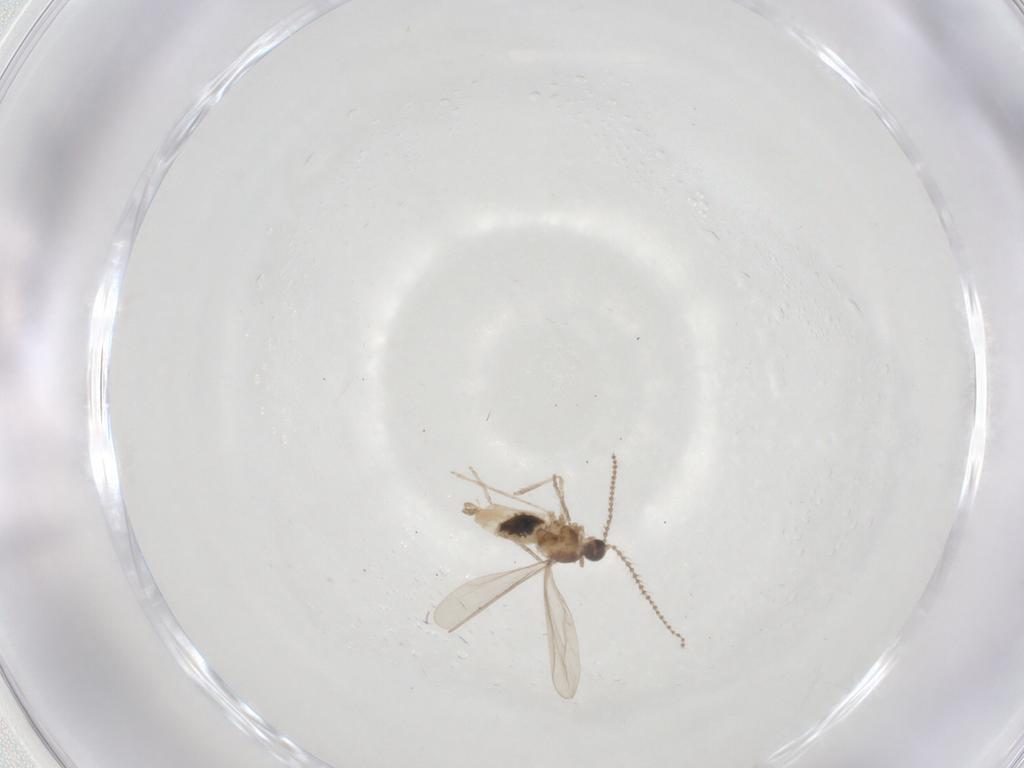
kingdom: Animalia
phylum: Arthropoda
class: Insecta
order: Diptera
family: Cecidomyiidae
